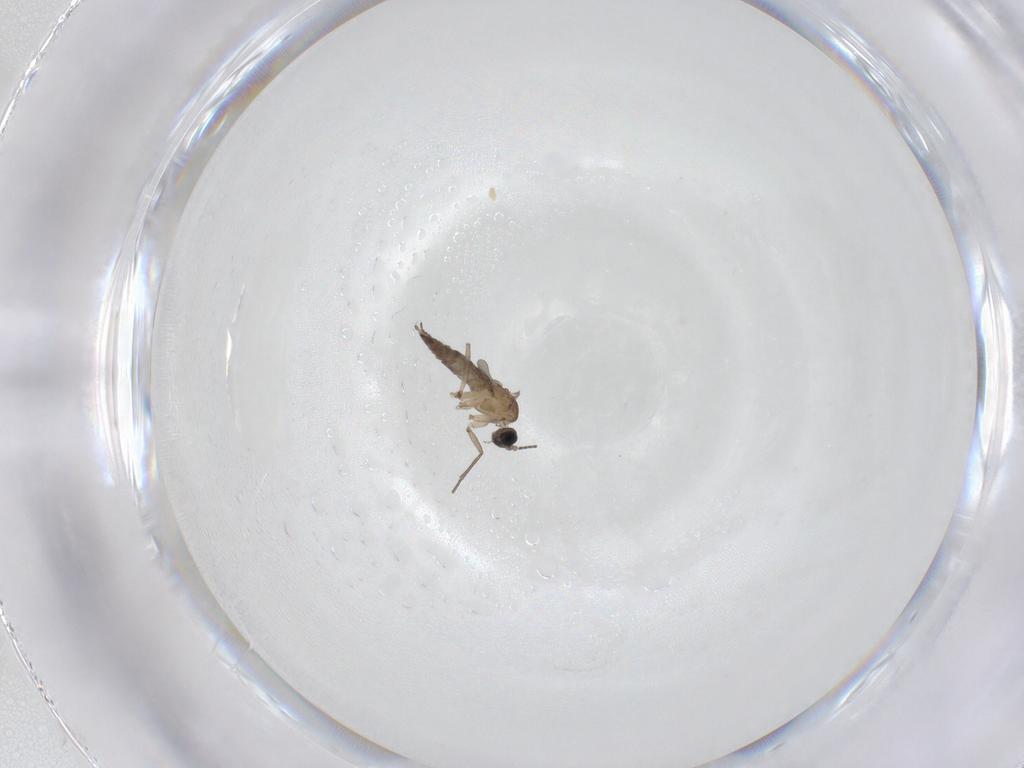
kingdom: Animalia
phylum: Arthropoda
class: Insecta
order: Diptera
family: Sciaridae
